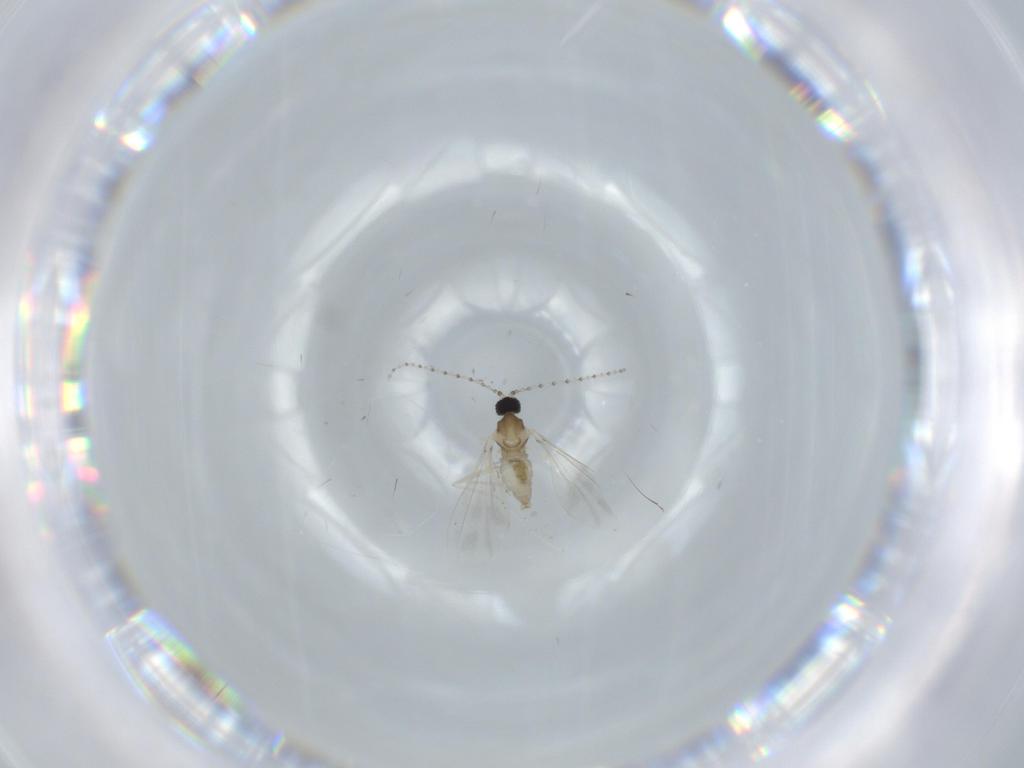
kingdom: Animalia
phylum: Arthropoda
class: Insecta
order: Diptera
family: Cecidomyiidae
